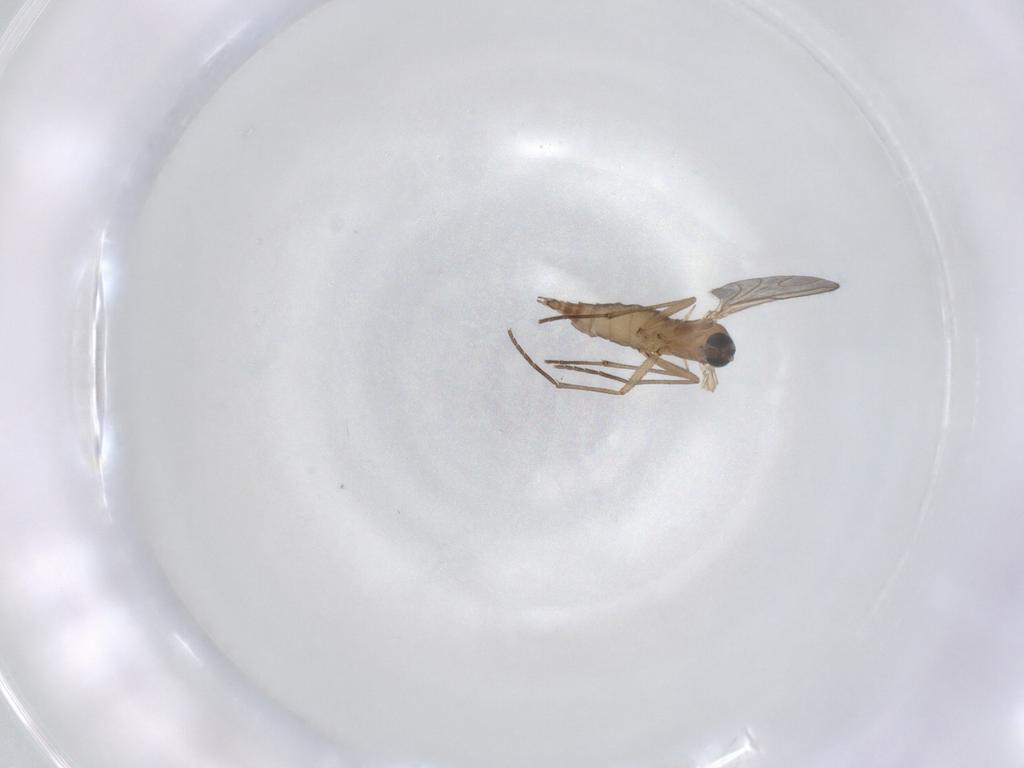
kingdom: Animalia
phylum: Arthropoda
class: Insecta
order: Diptera
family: Sciaridae
